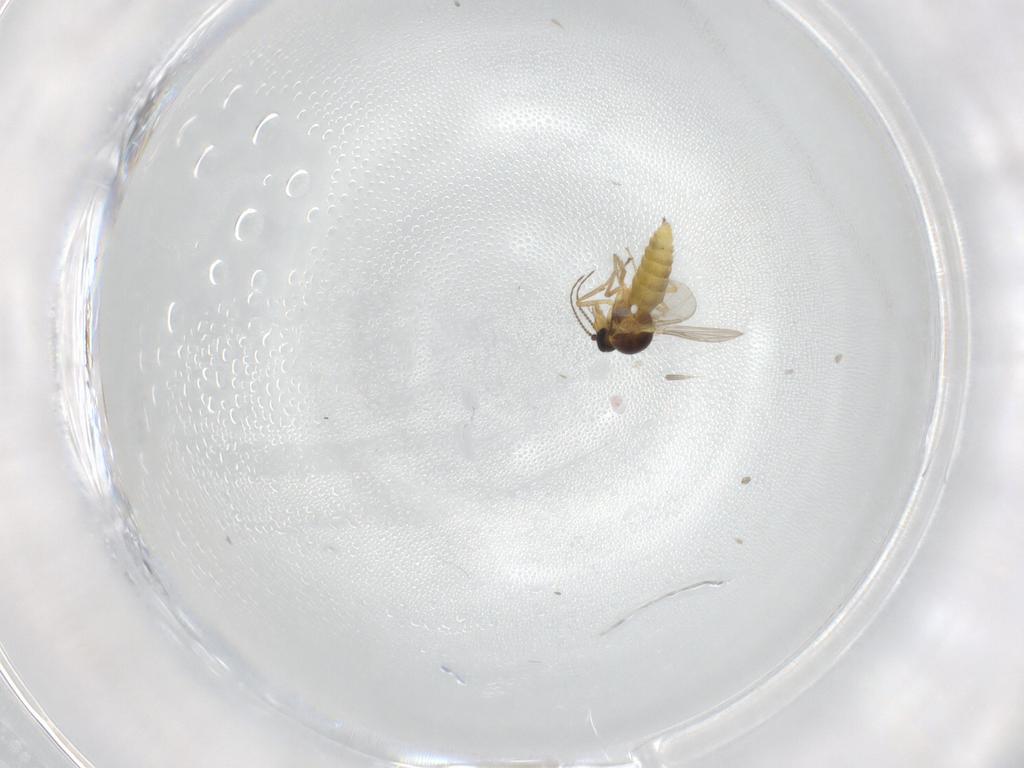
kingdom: Animalia
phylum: Arthropoda
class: Insecta
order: Diptera
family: Ceratopogonidae
